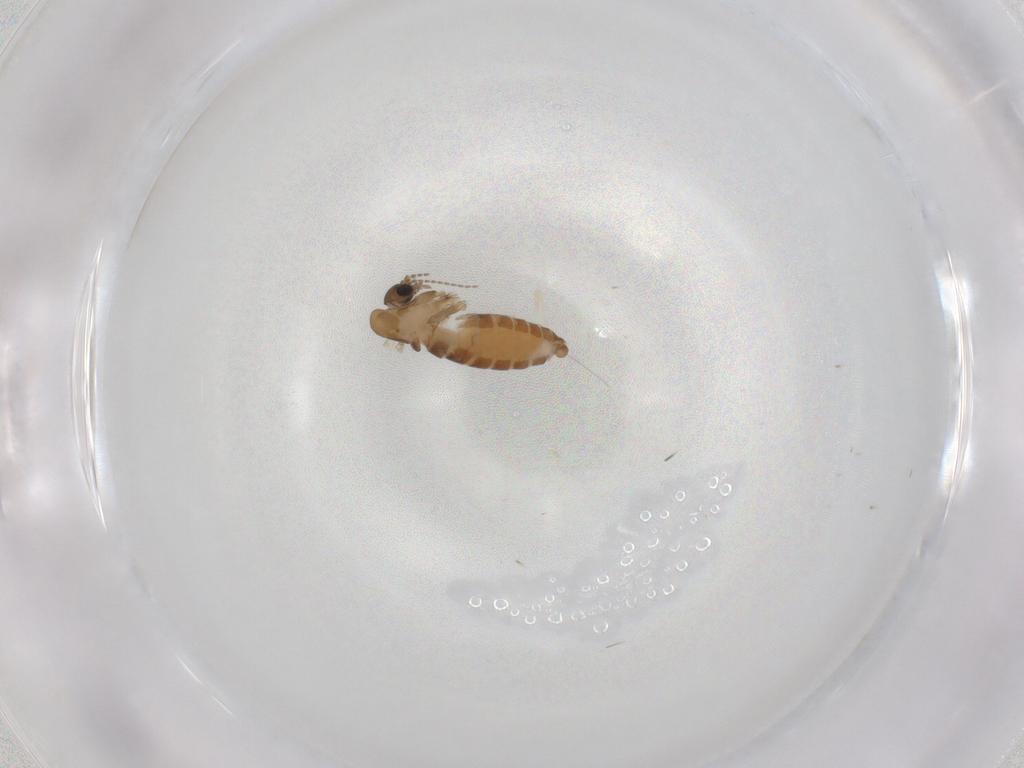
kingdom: Animalia
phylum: Arthropoda
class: Insecta
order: Diptera
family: Psychodidae
